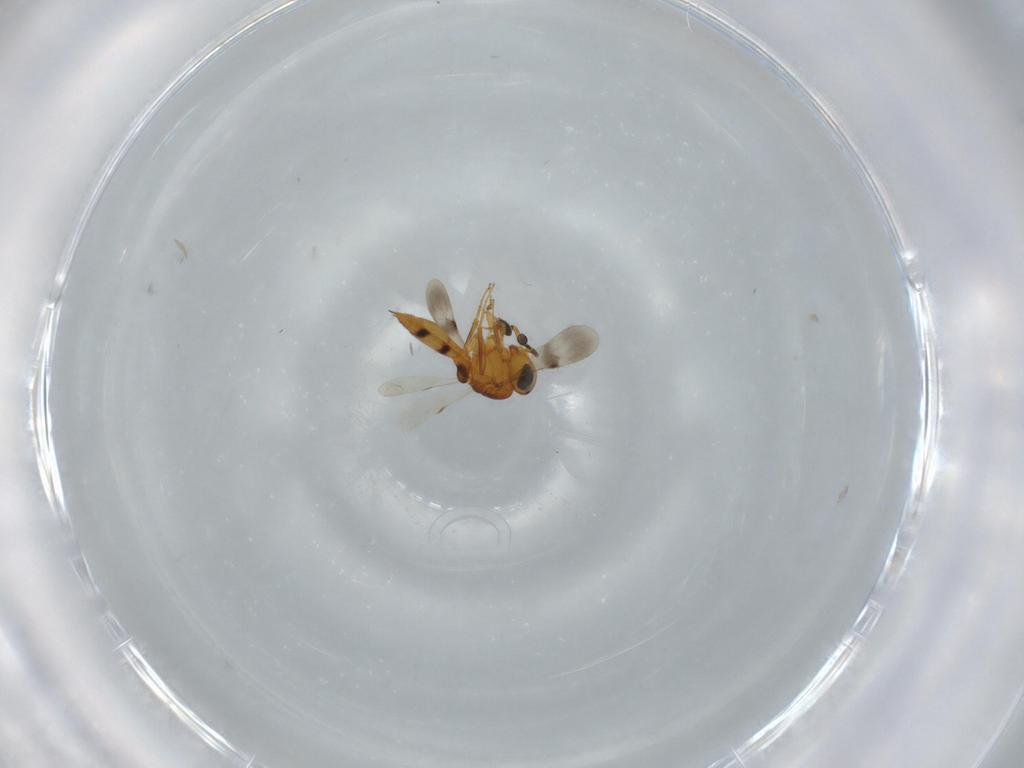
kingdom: Animalia
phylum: Arthropoda
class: Insecta
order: Hymenoptera
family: Scelionidae
